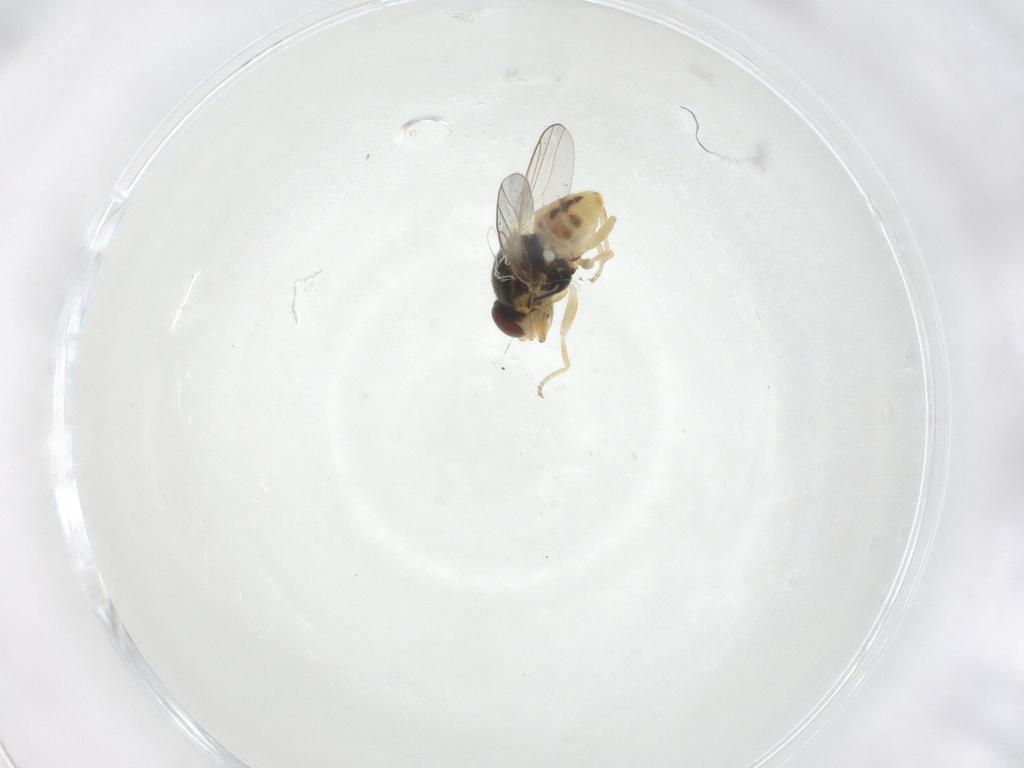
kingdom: Animalia
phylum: Arthropoda
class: Insecta
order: Diptera
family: Chloropidae
